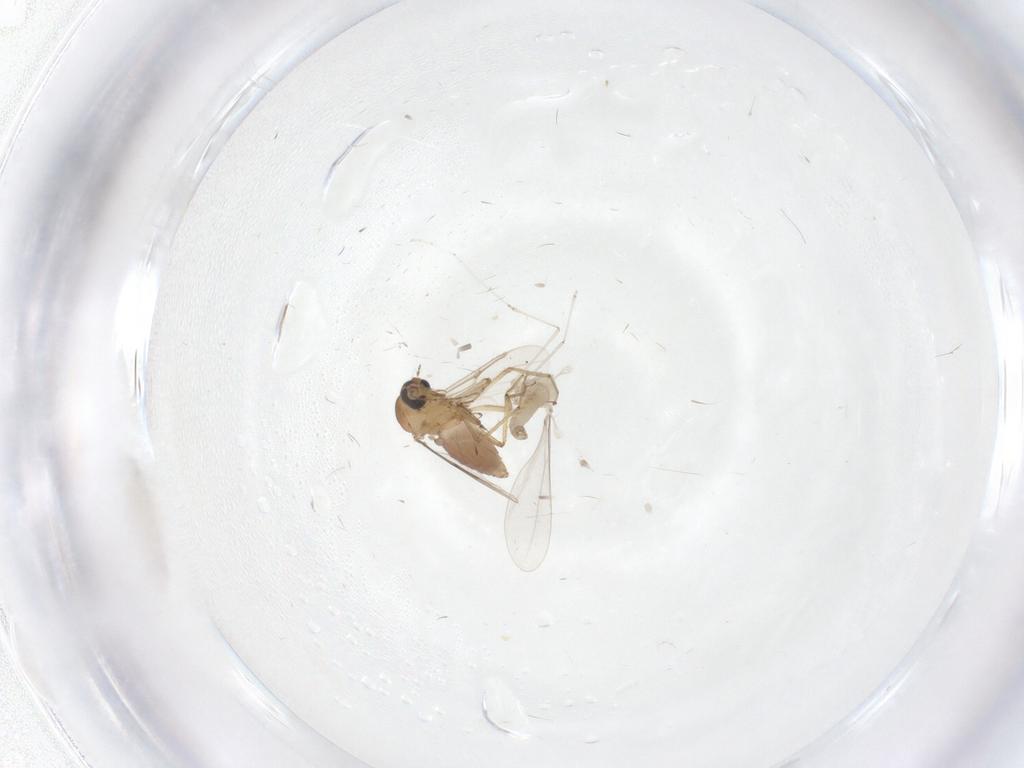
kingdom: Animalia
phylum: Arthropoda
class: Insecta
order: Diptera
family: Cecidomyiidae
